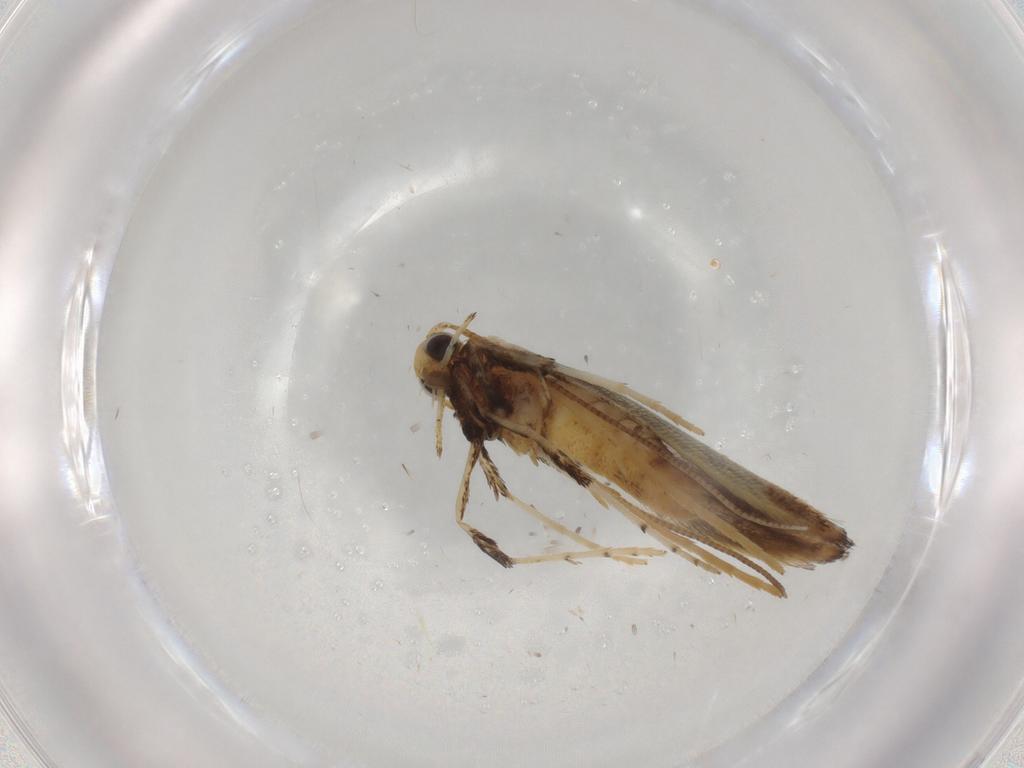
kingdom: Animalia
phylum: Arthropoda
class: Insecta
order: Lepidoptera
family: Gracillariidae
